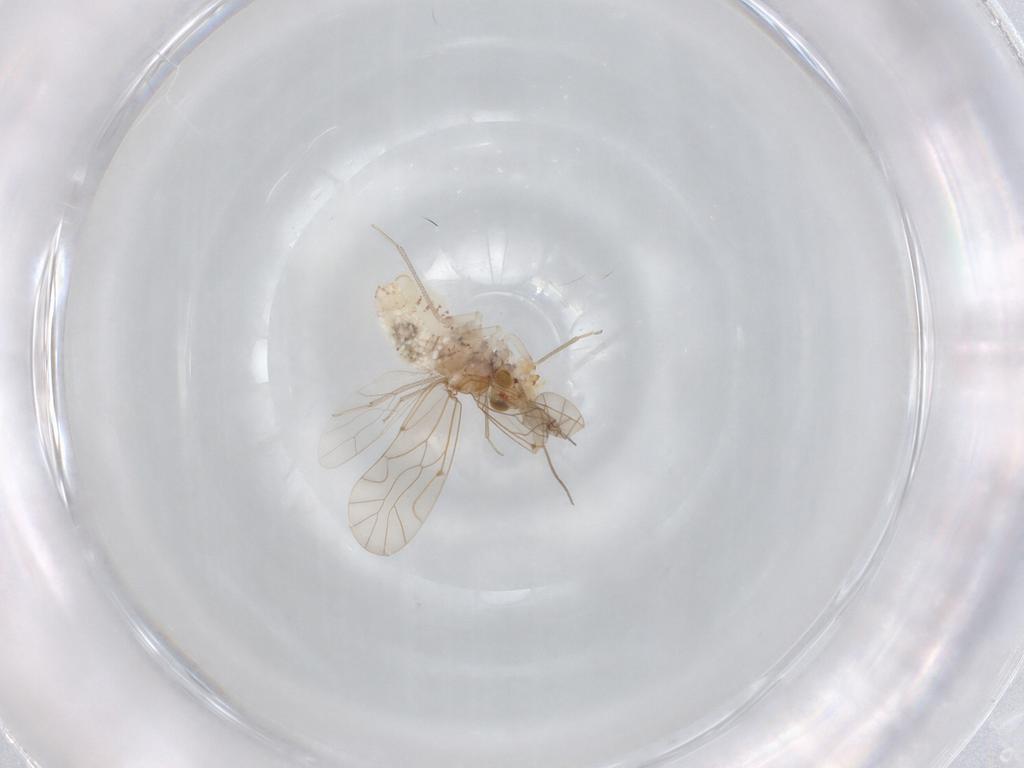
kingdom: Animalia
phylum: Arthropoda
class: Insecta
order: Psocodea
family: Lachesillidae
